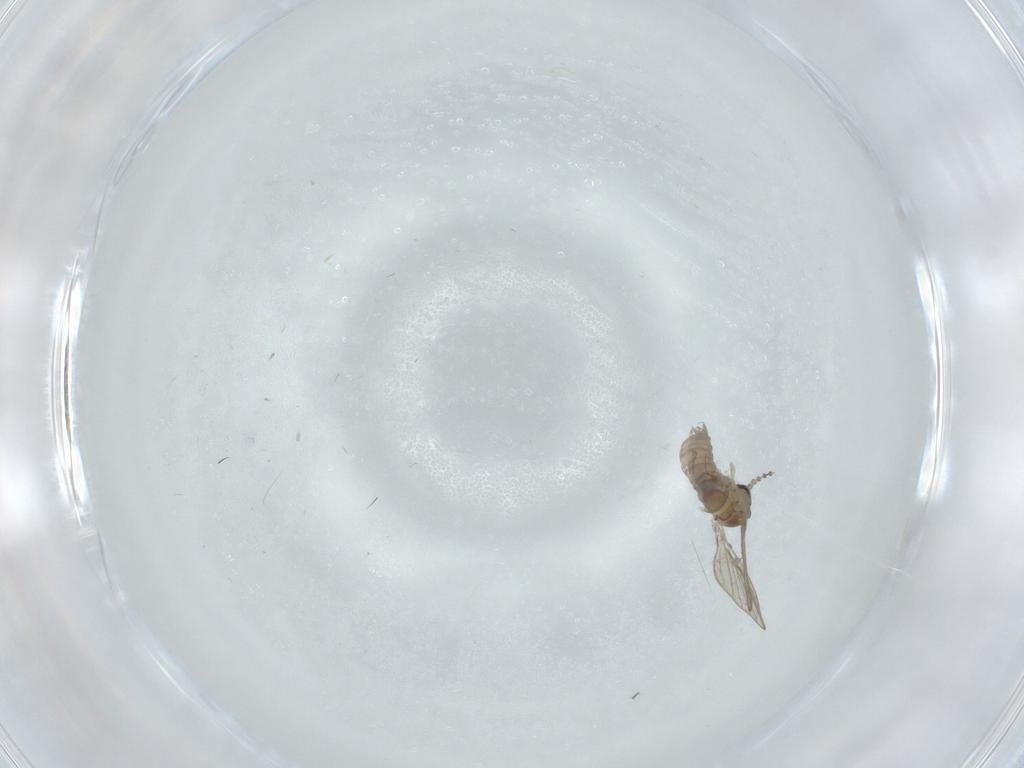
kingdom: Animalia
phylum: Arthropoda
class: Insecta
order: Diptera
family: Psychodidae
